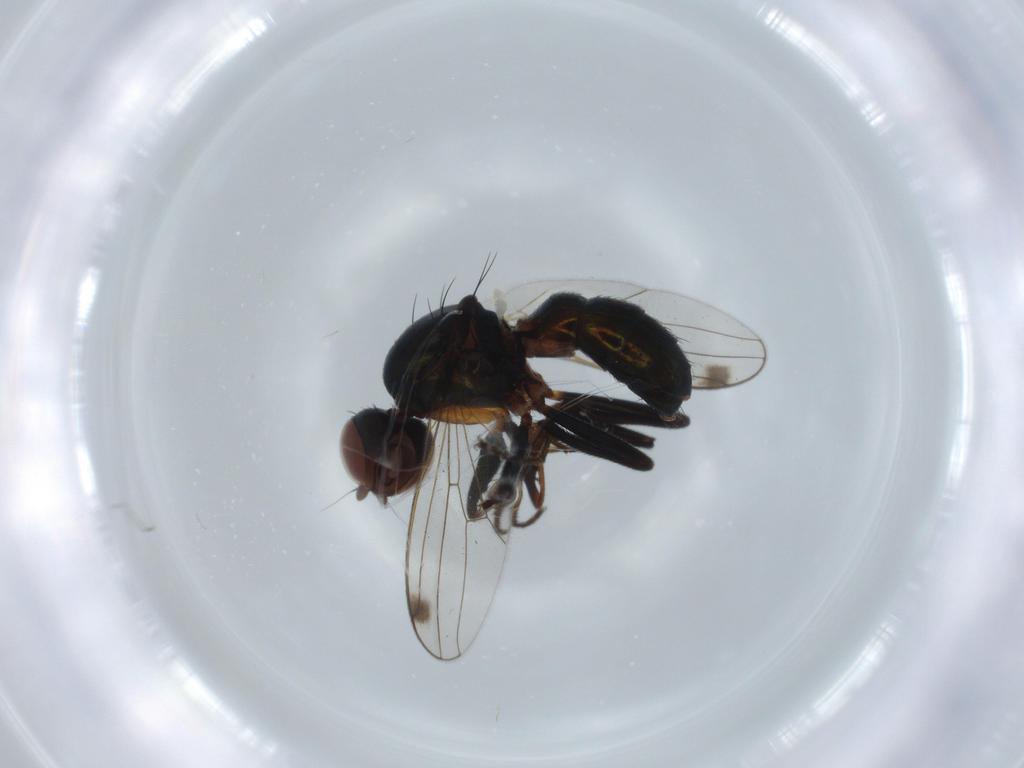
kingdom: Animalia
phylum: Arthropoda
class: Insecta
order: Diptera
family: Sepsidae
